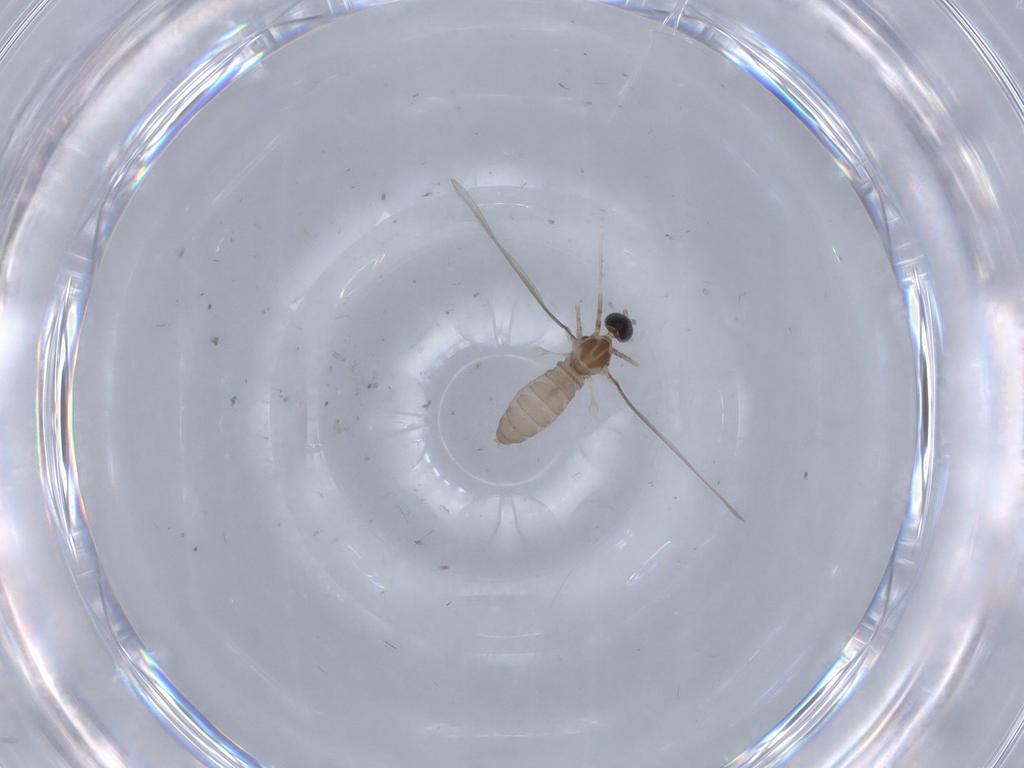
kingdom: Animalia
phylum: Arthropoda
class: Insecta
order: Diptera
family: Cecidomyiidae
